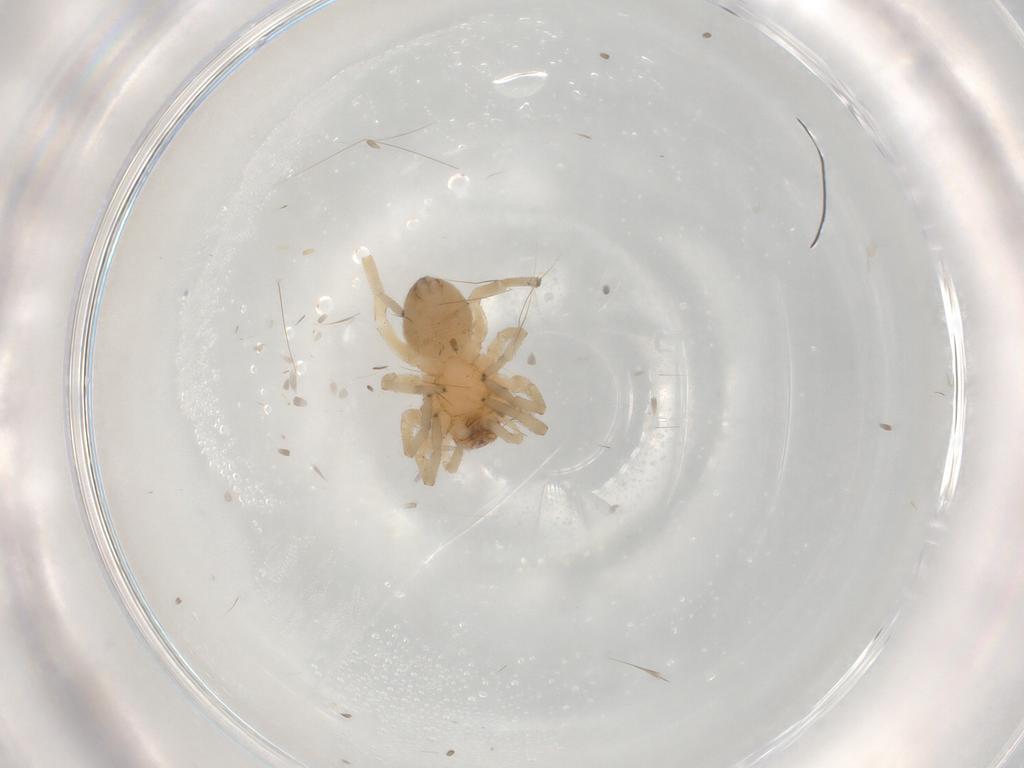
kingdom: Animalia
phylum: Arthropoda
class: Arachnida
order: Araneae
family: Trachelidae
